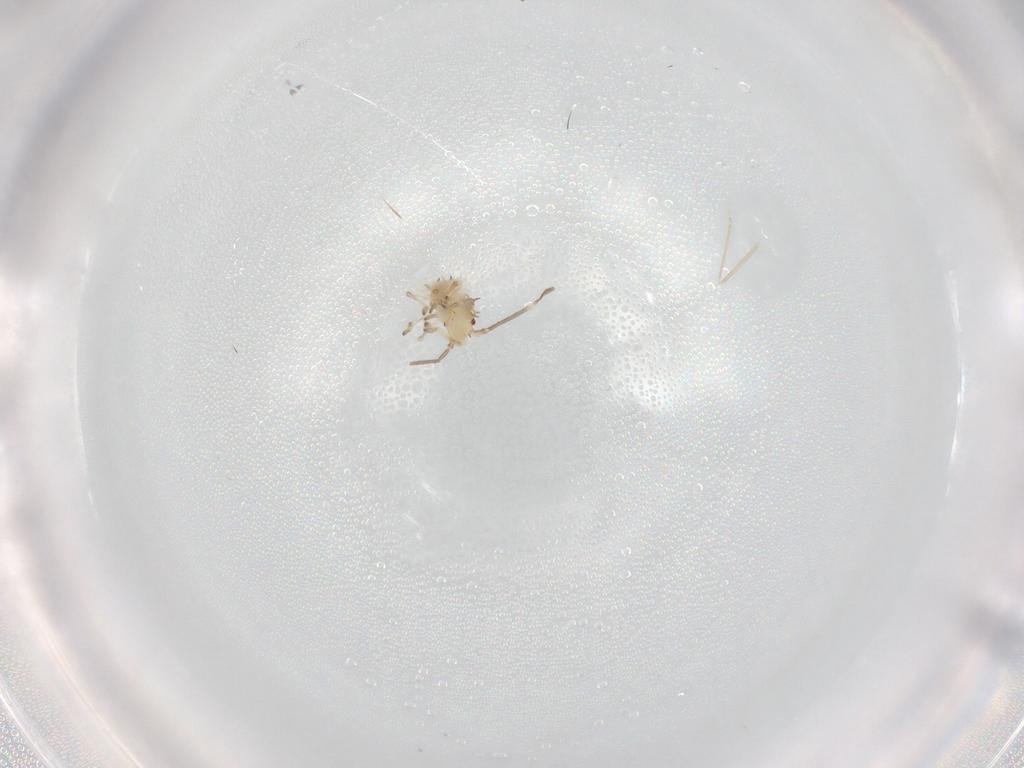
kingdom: Animalia
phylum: Arthropoda
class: Insecta
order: Hemiptera
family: Tingidae
